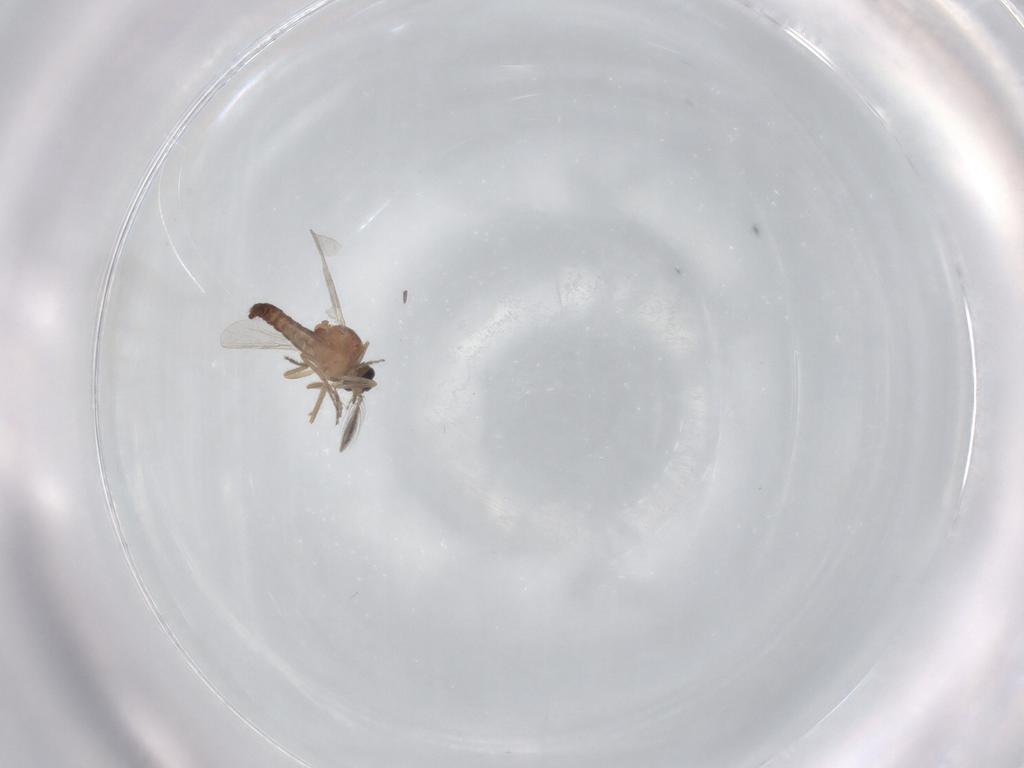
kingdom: Animalia
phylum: Arthropoda
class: Insecta
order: Diptera
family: Ceratopogonidae
